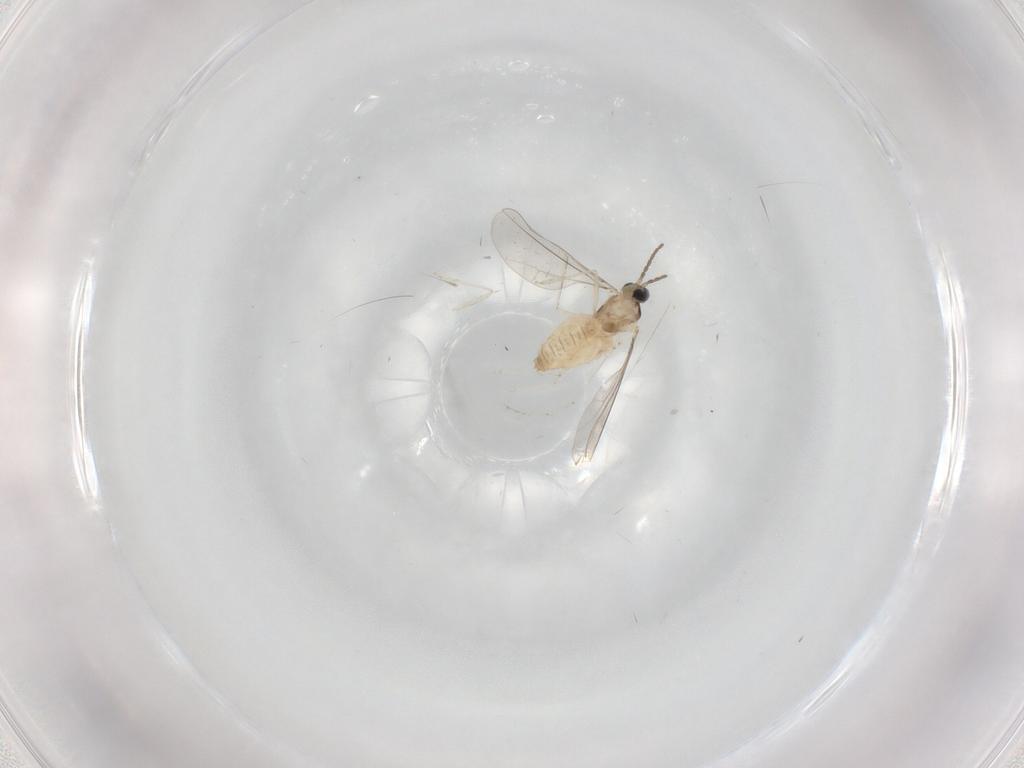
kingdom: Animalia
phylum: Arthropoda
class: Insecta
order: Diptera
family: Cecidomyiidae
